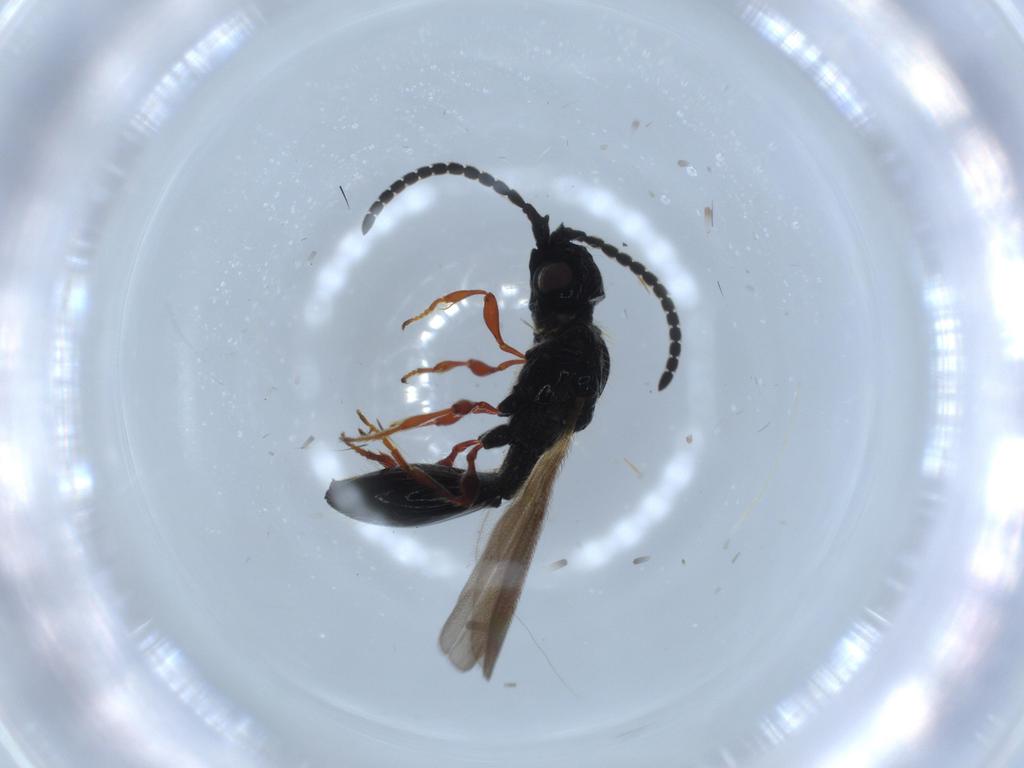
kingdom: Animalia
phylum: Arthropoda
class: Insecta
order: Hymenoptera
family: Diapriidae
